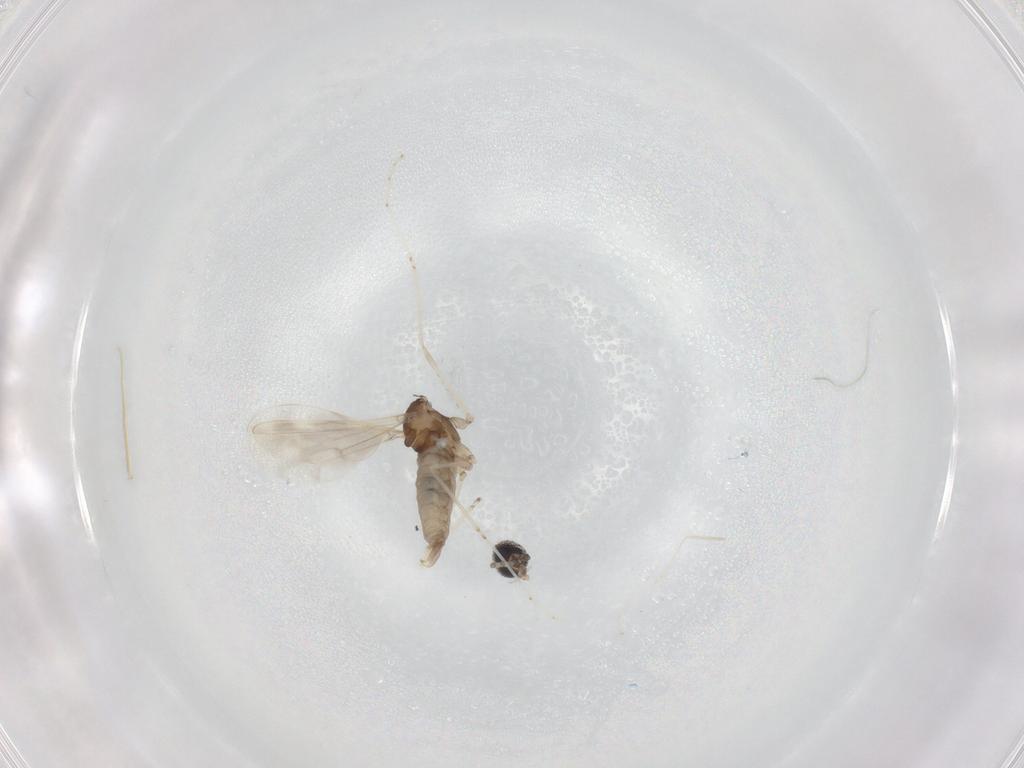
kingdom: Animalia
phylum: Arthropoda
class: Insecta
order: Diptera
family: Cecidomyiidae
